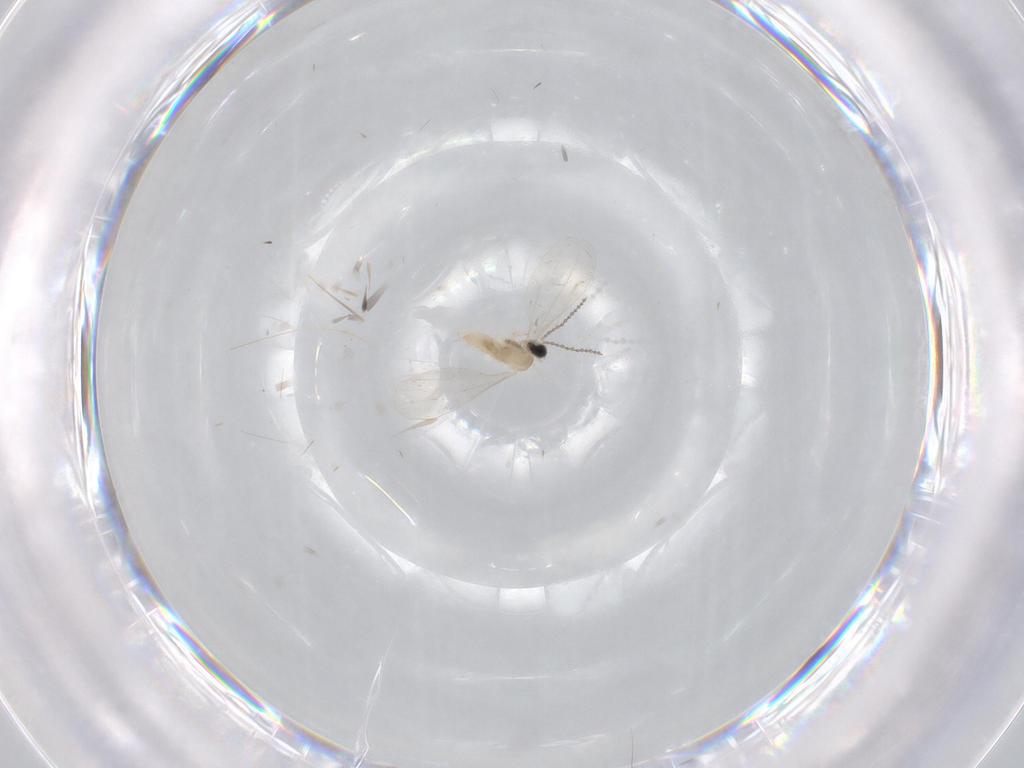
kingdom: Animalia
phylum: Arthropoda
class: Insecta
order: Diptera
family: Cecidomyiidae
